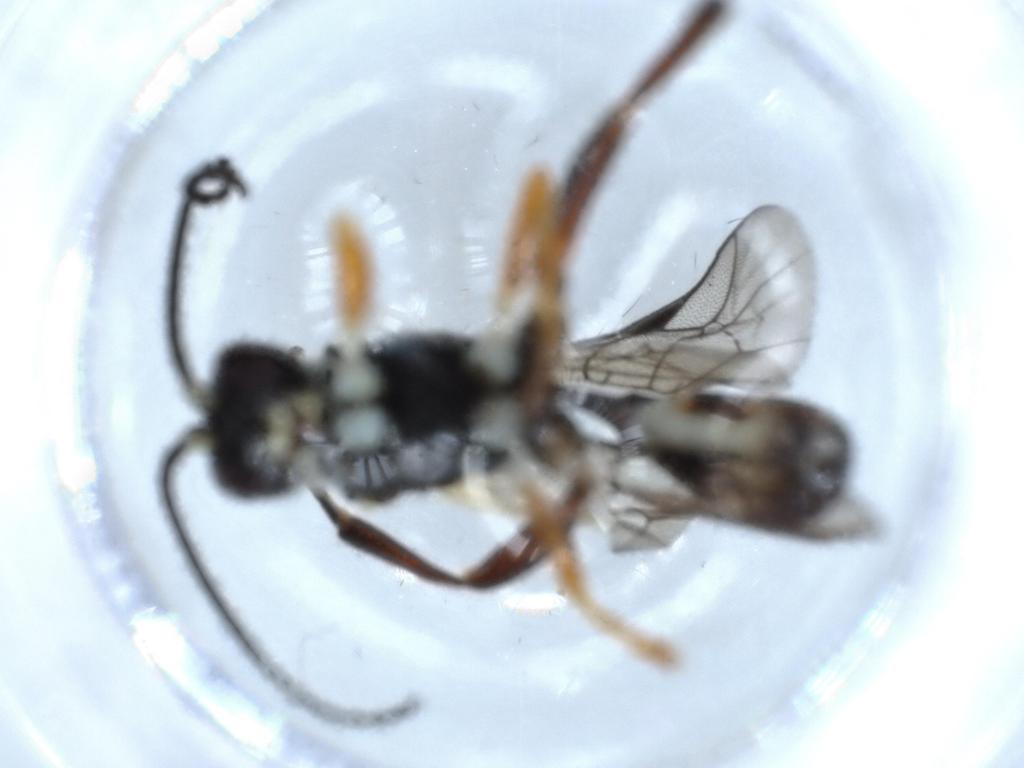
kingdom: Animalia
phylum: Arthropoda
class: Insecta
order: Hymenoptera
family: Ichneumonidae
